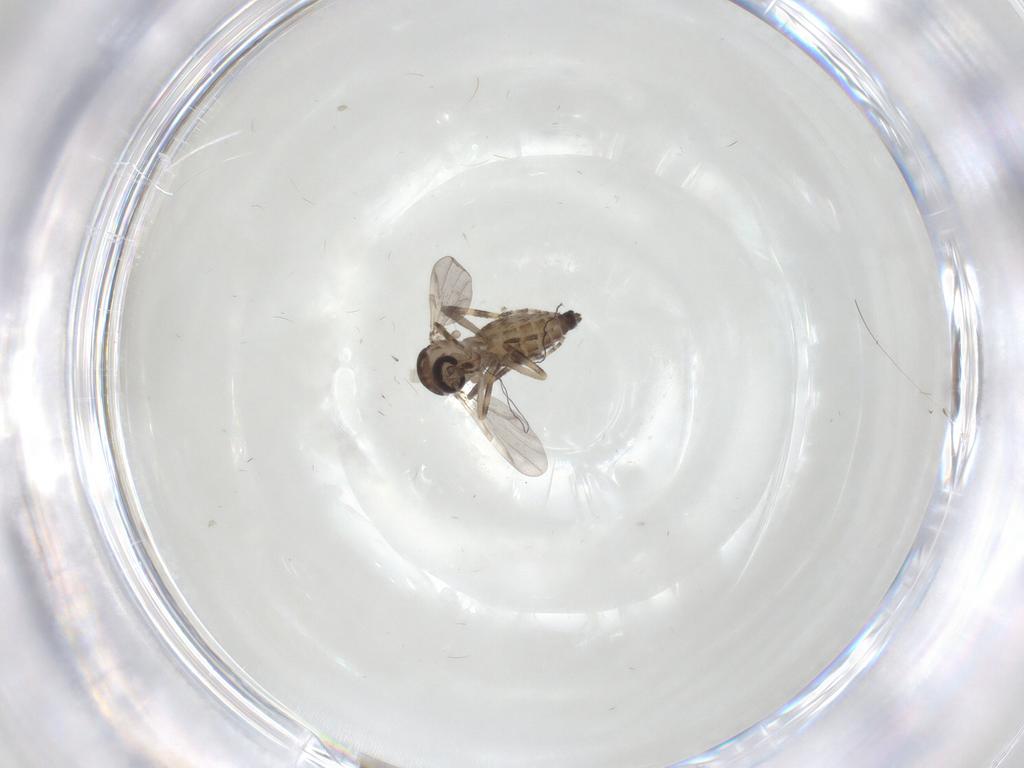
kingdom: Animalia
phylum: Arthropoda
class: Insecta
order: Diptera
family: Ceratopogonidae
